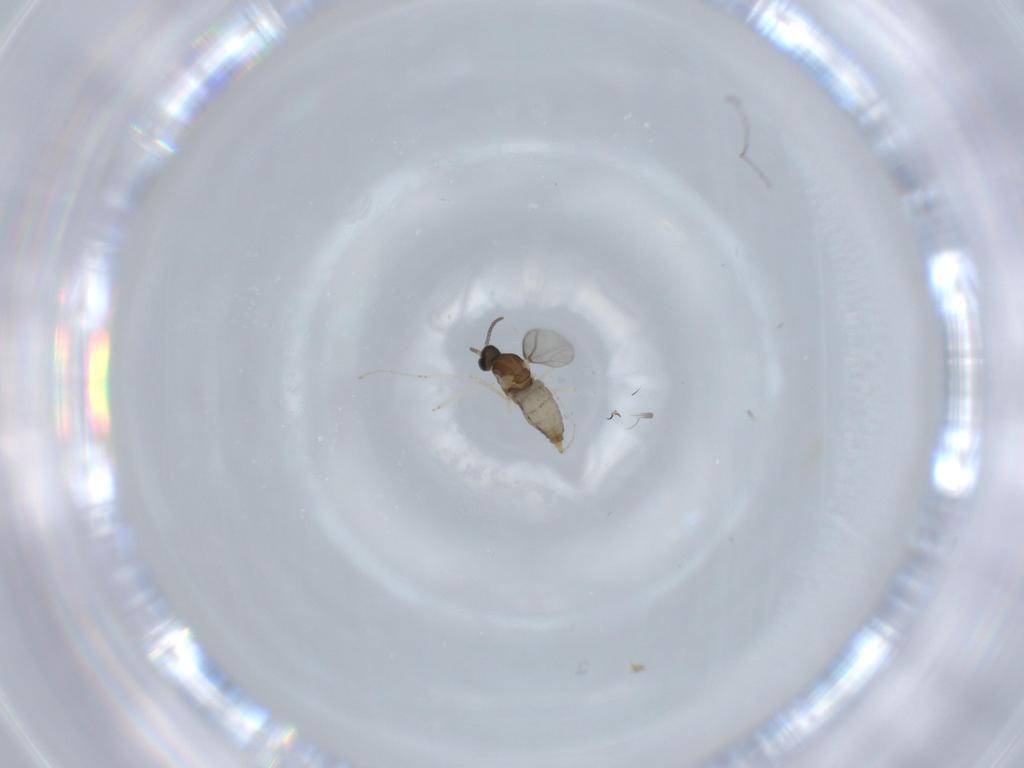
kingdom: Animalia
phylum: Arthropoda
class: Insecta
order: Diptera
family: Cecidomyiidae
